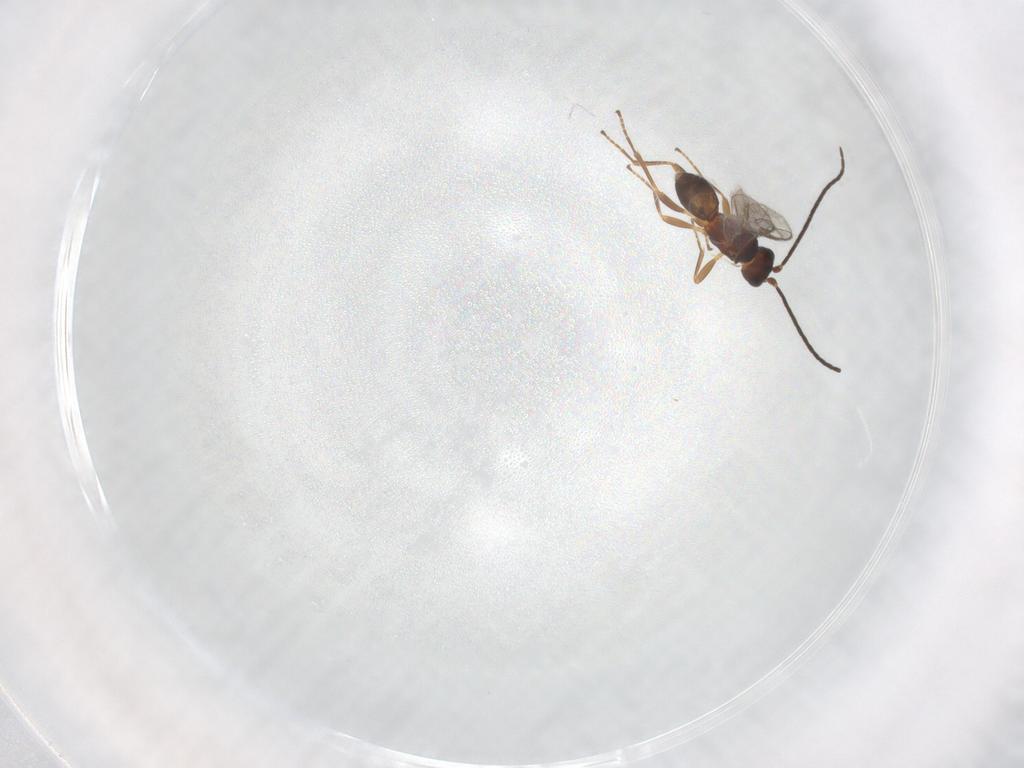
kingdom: Animalia
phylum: Arthropoda
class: Insecta
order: Hymenoptera
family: Braconidae
